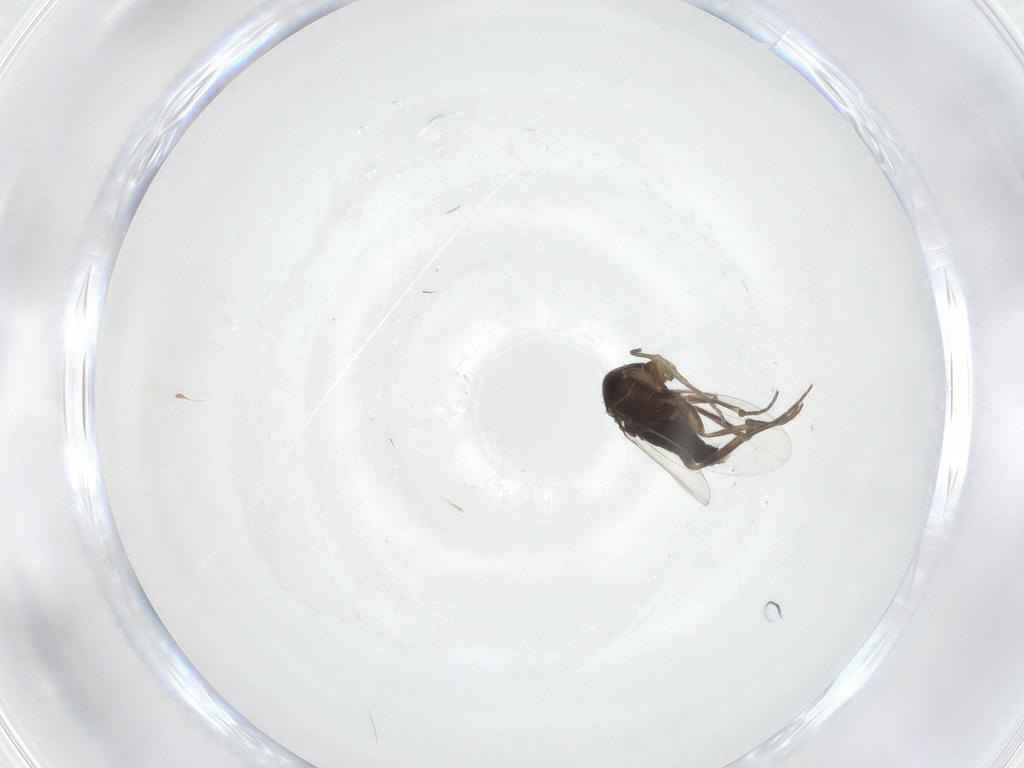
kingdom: Animalia
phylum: Arthropoda
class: Insecta
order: Diptera
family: Phoridae
